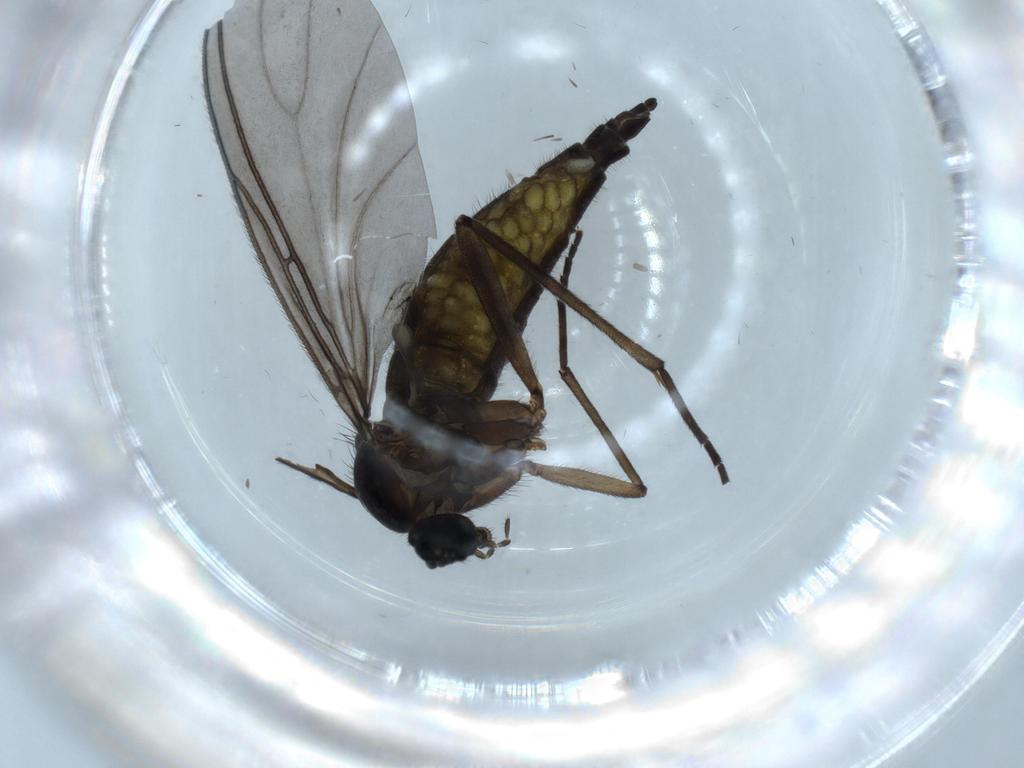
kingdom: Animalia
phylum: Arthropoda
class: Insecta
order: Diptera
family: Sciaridae
